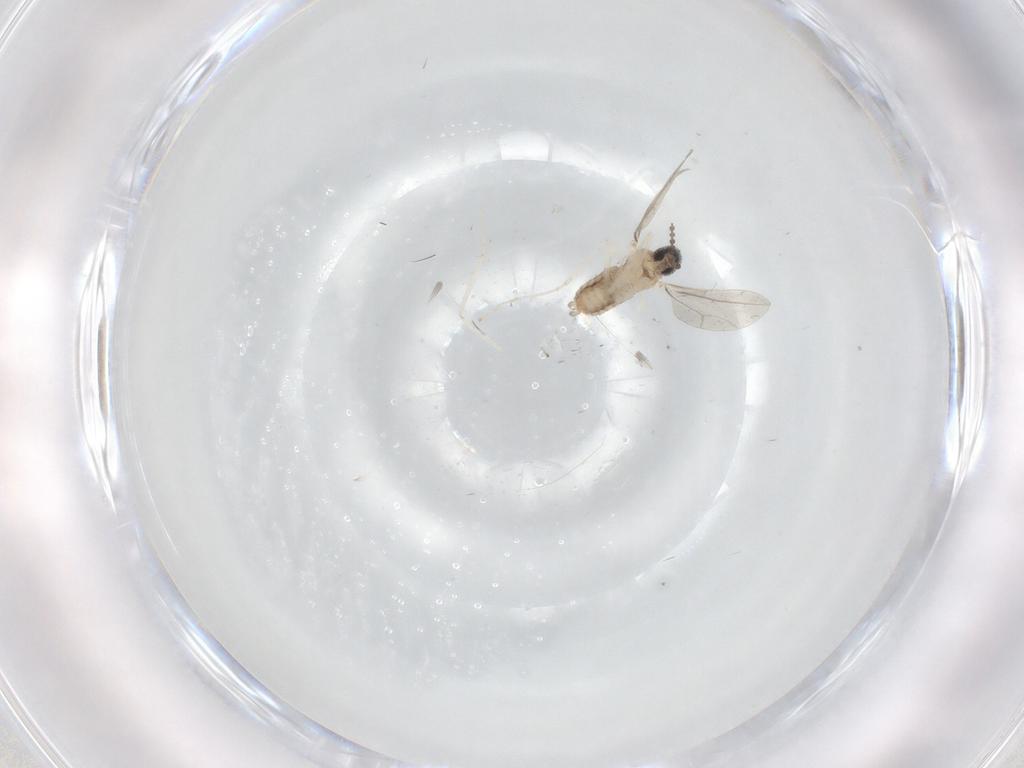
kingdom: Animalia
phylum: Arthropoda
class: Insecta
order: Diptera
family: Cecidomyiidae
